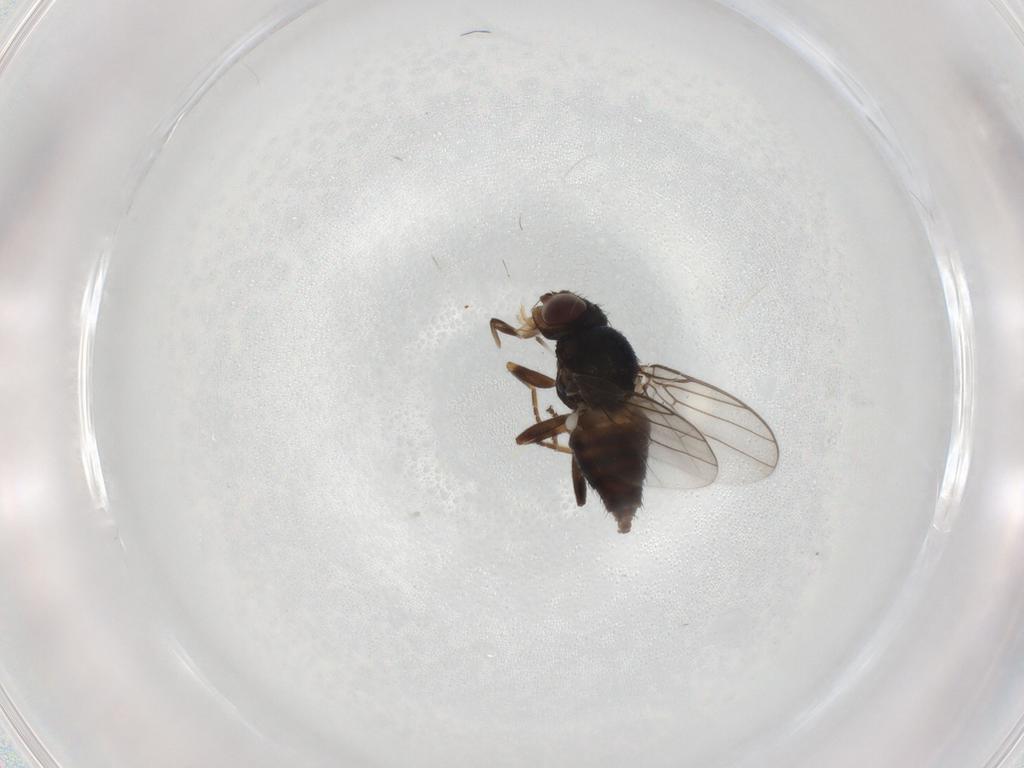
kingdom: Animalia
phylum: Arthropoda
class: Insecta
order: Diptera
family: Chloropidae
